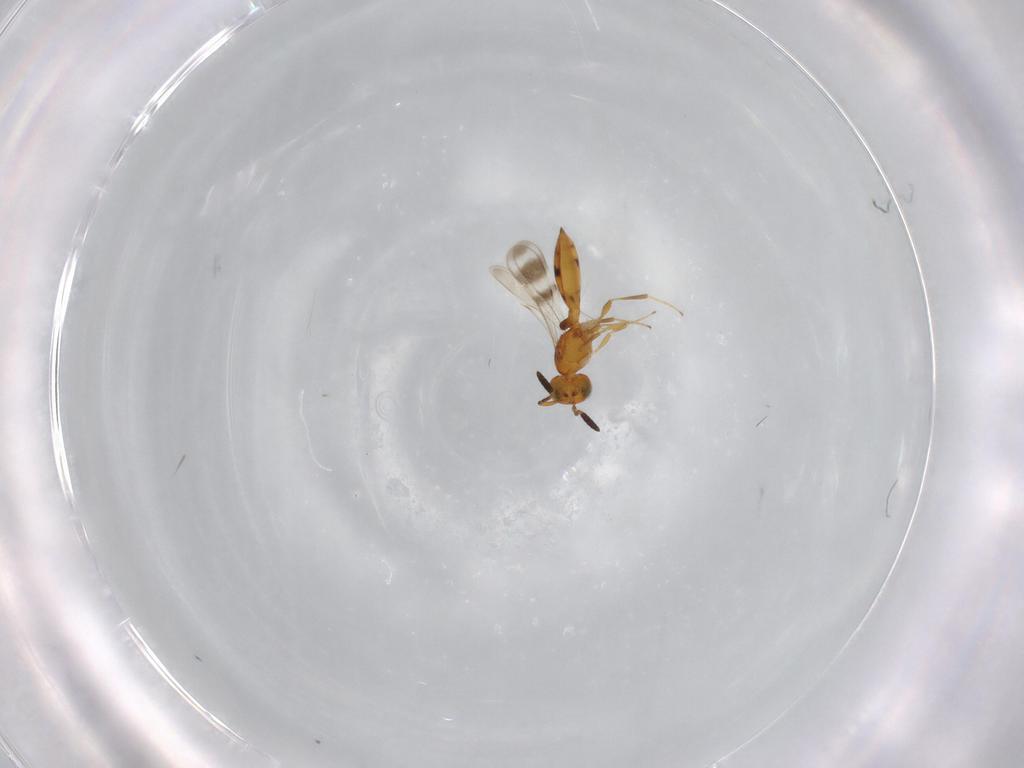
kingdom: Animalia
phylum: Arthropoda
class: Insecta
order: Hymenoptera
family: Scelionidae
